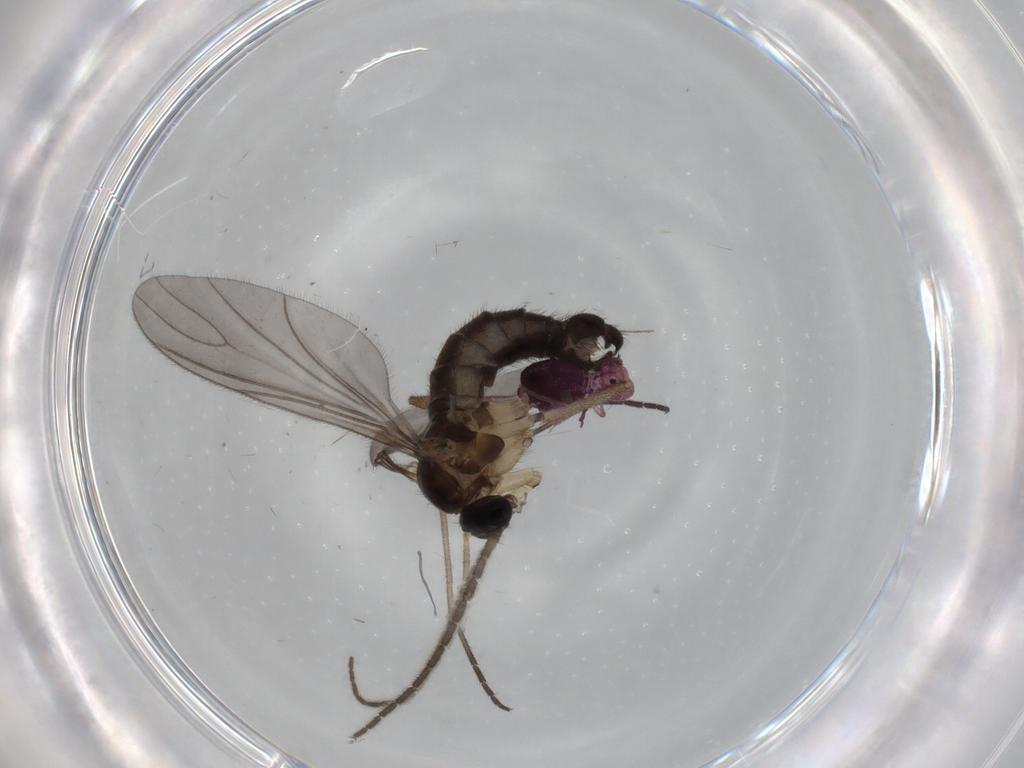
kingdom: Animalia
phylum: Arthropoda
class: Insecta
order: Diptera
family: Sciaridae
